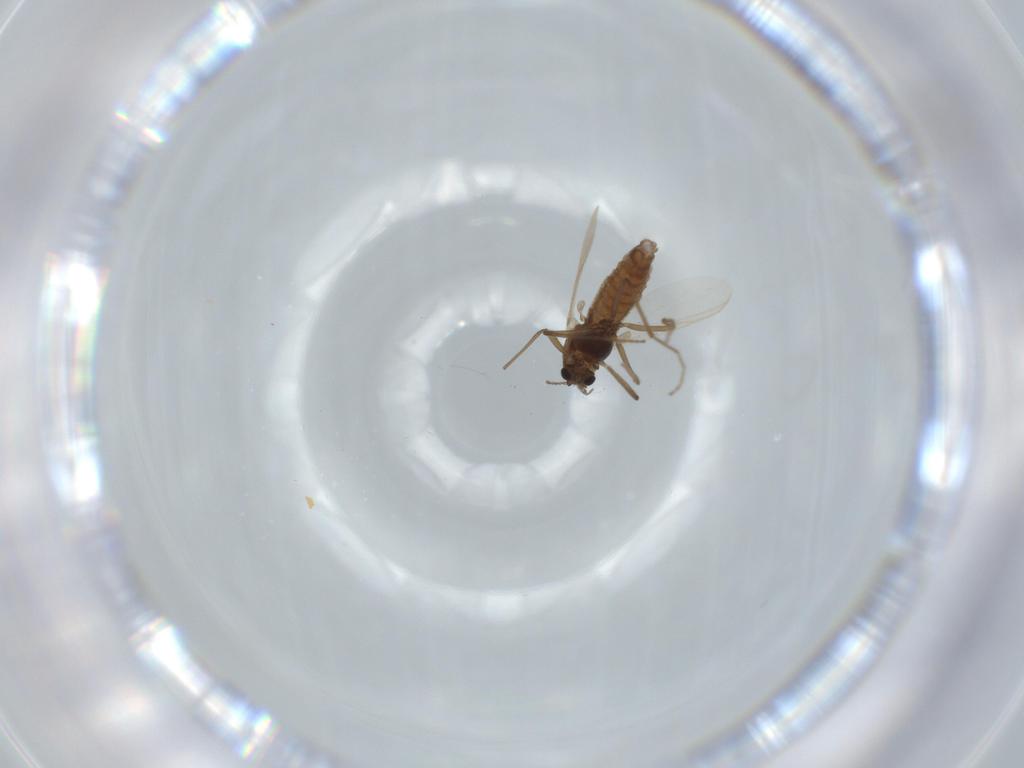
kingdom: Animalia
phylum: Arthropoda
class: Insecta
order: Diptera
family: Chironomidae
